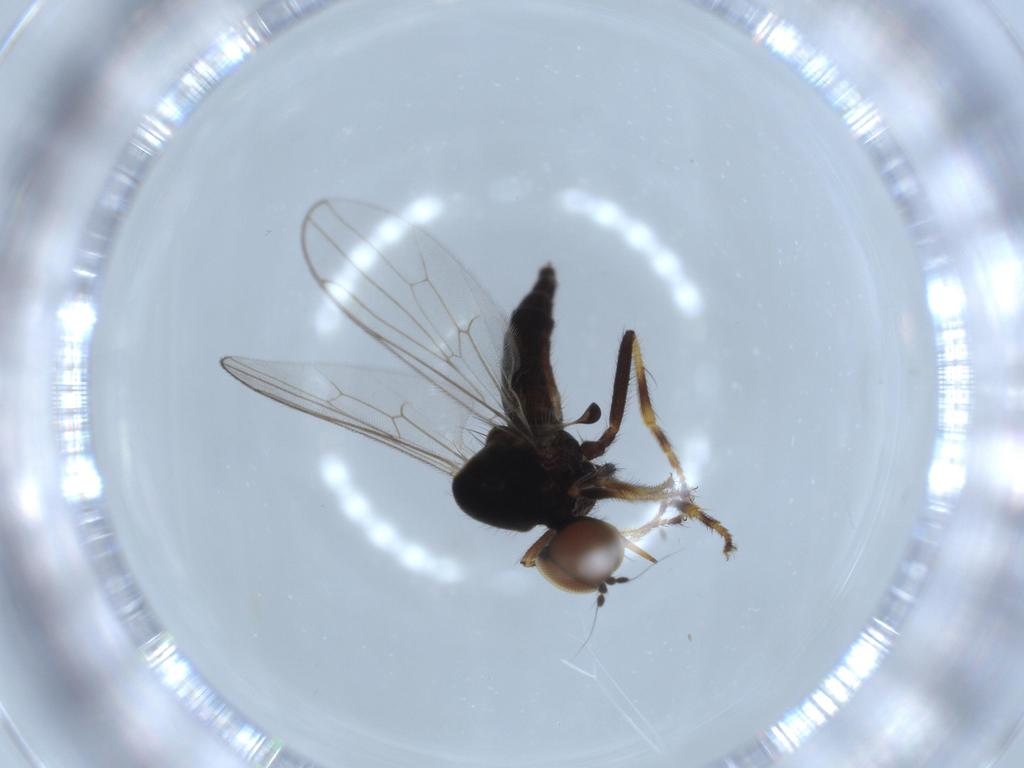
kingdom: Animalia
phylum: Arthropoda
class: Insecta
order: Diptera
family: Hybotidae
